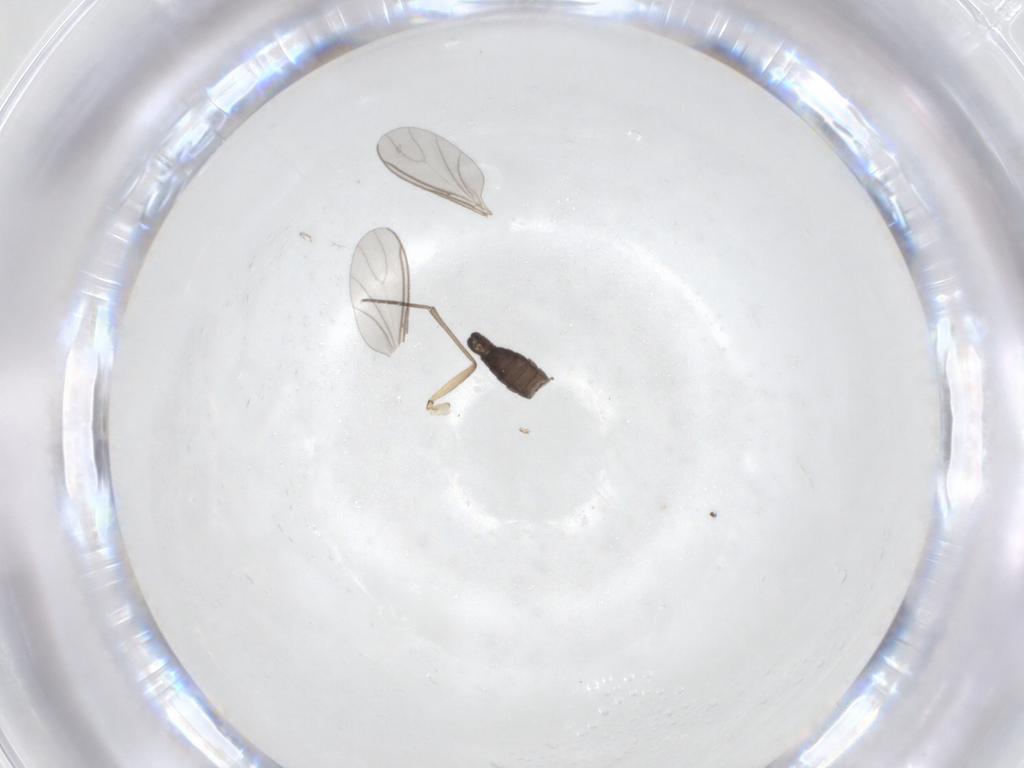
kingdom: Animalia
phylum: Arthropoda
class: Insecta
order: Diptera
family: Sciaridae
